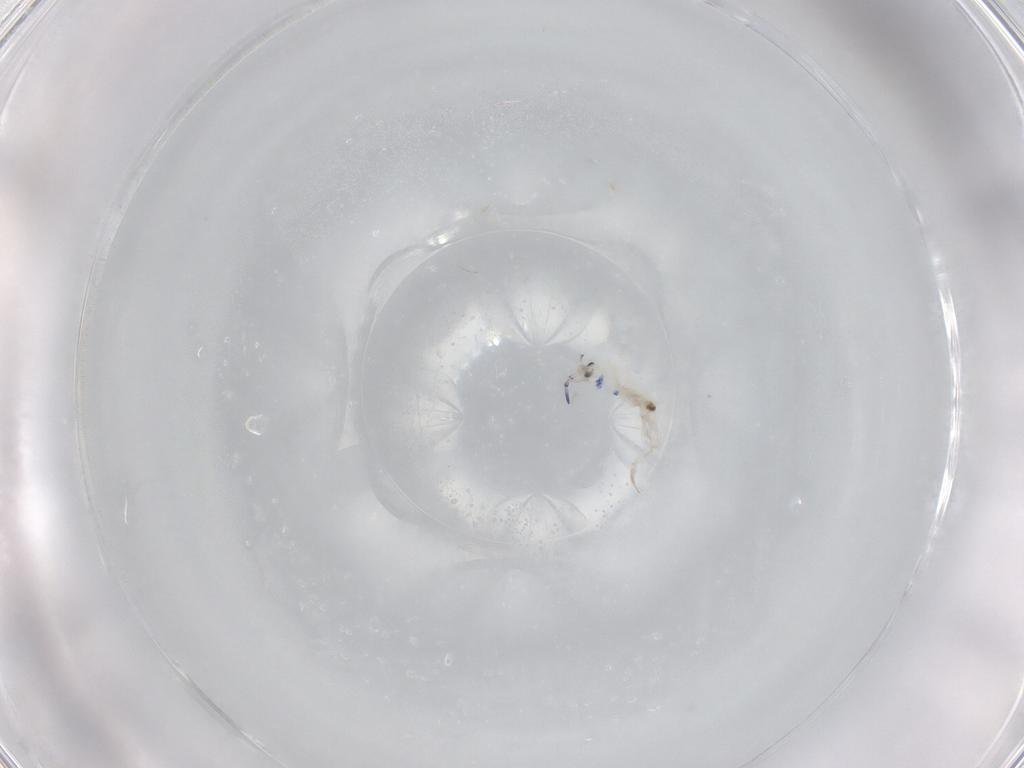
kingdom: Animalia
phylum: Arthropoda
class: Collembola
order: Entomobryomorpha
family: Entomobryidae
